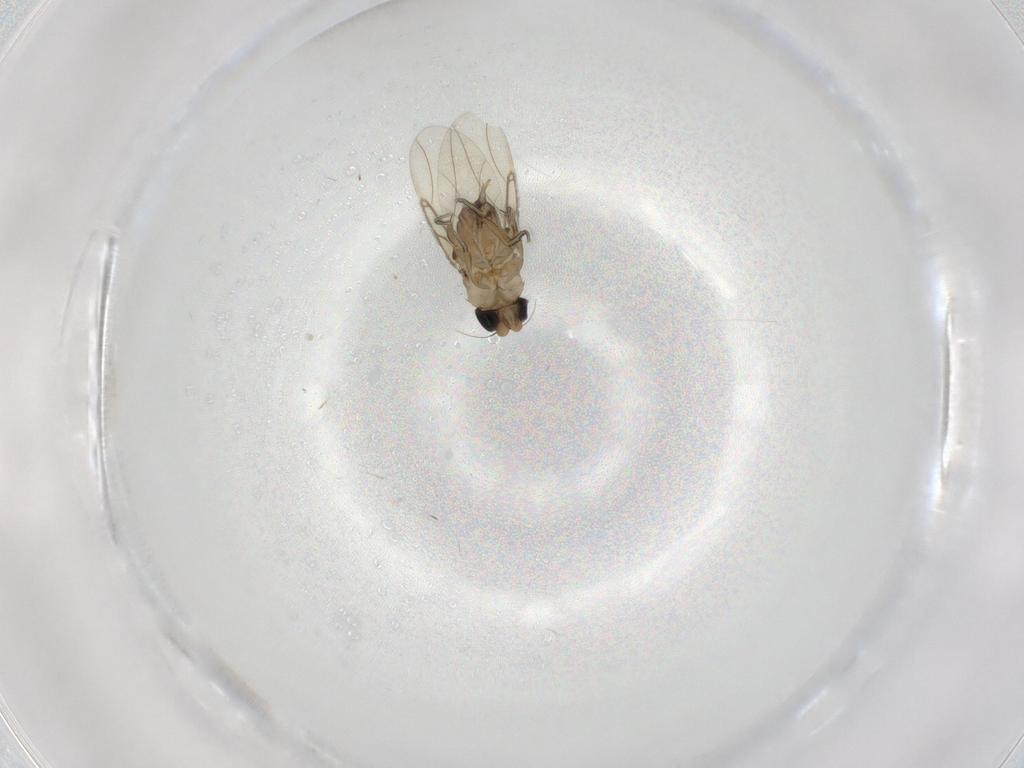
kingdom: Animalia
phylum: Arthropoda
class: Insecta
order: Diptera
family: Phoridae
